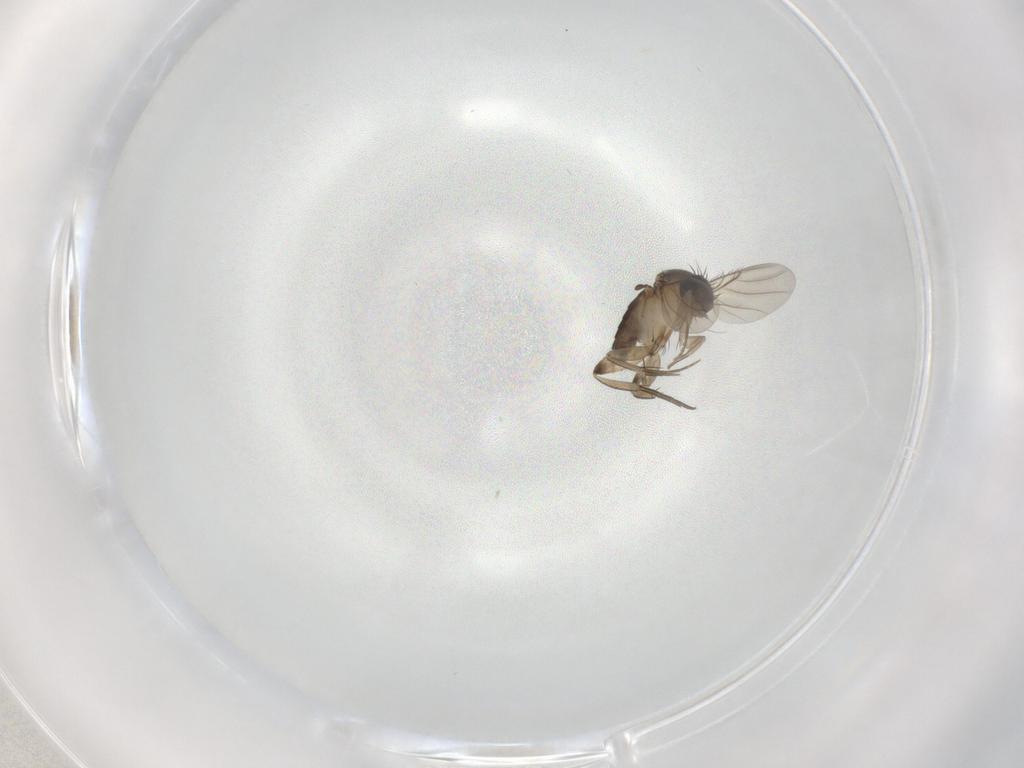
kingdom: Animalia
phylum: Arthropoda
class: Insecta
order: Diptera
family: Phoridae
